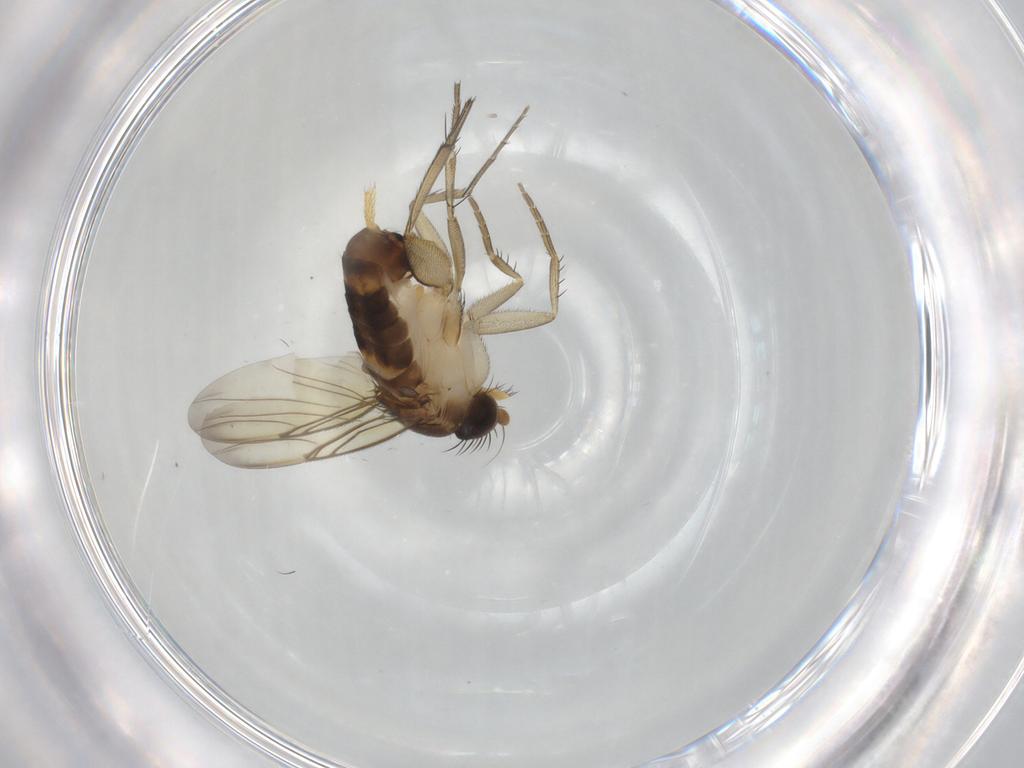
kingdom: Animalia
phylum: Arthropoda
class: Insecta
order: Diptera
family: Phoridae
